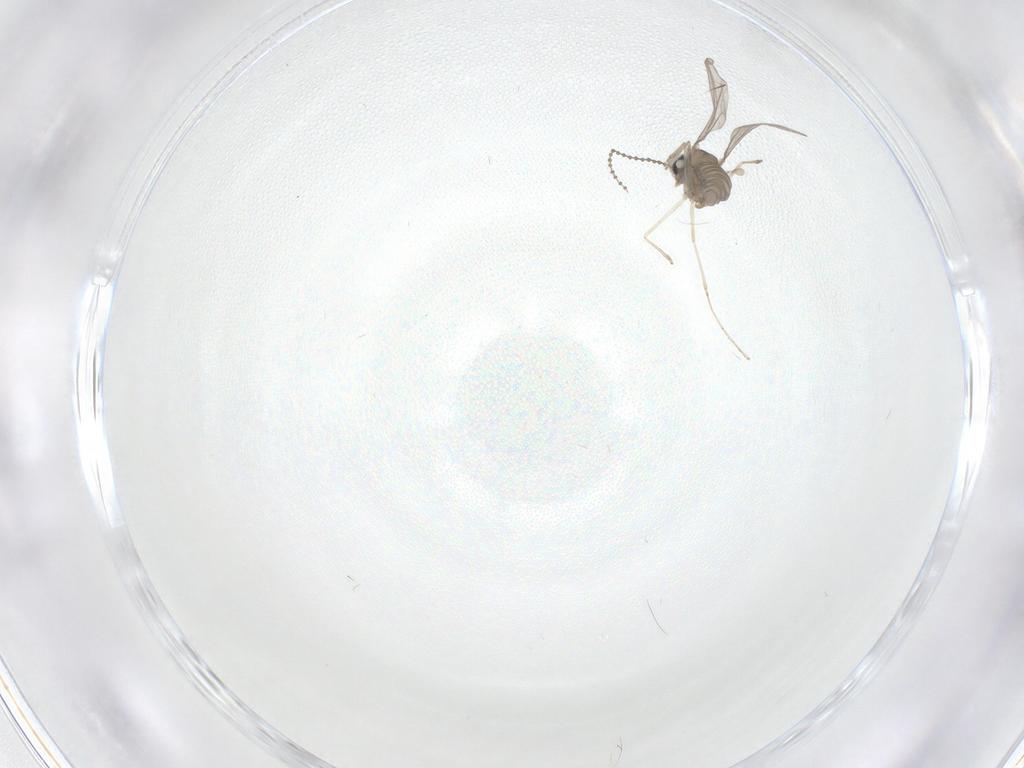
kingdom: Animalia
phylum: Arthropoda
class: Insecta
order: Diptera
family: Cecidomyiidae
